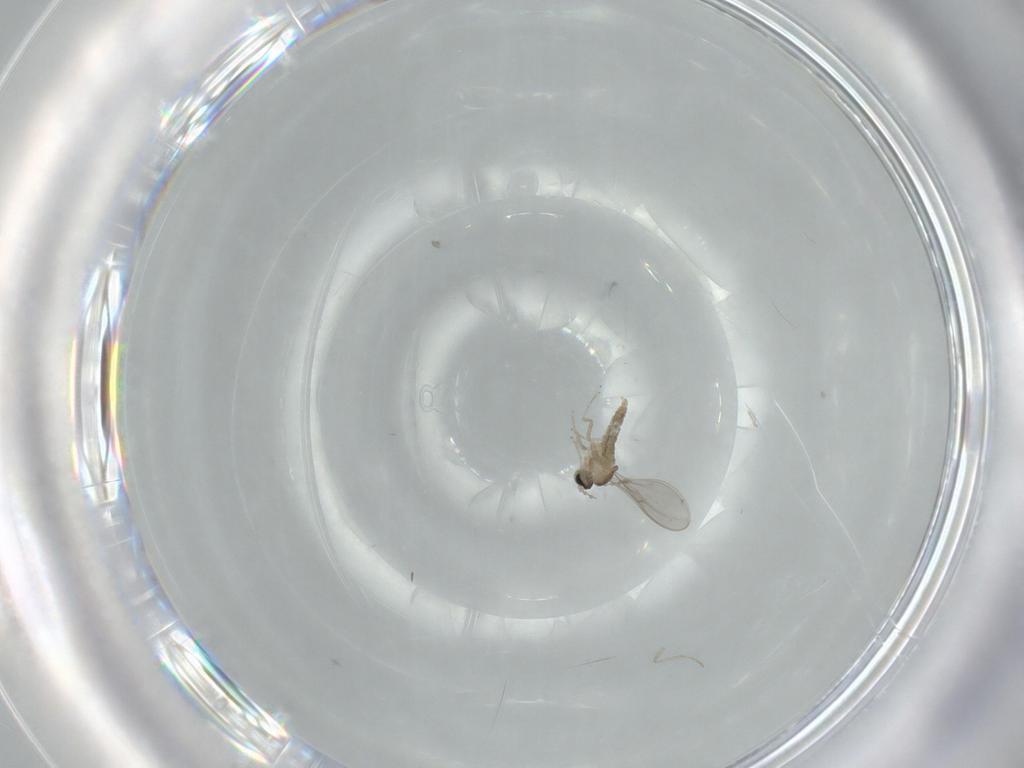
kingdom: Animalia
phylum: Arthropoda
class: Insecta
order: Diptera
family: Cecidomyiidae
